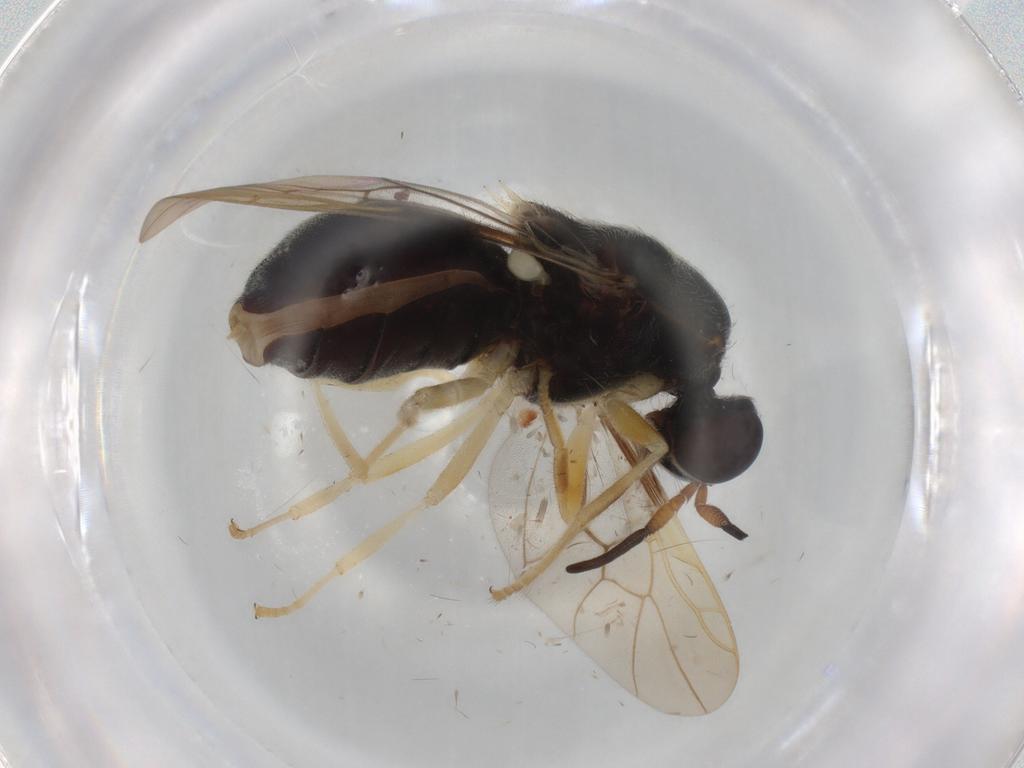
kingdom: Animalia
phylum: Arthropoda
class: Insecta
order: Diptera
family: Stratiomyidae
